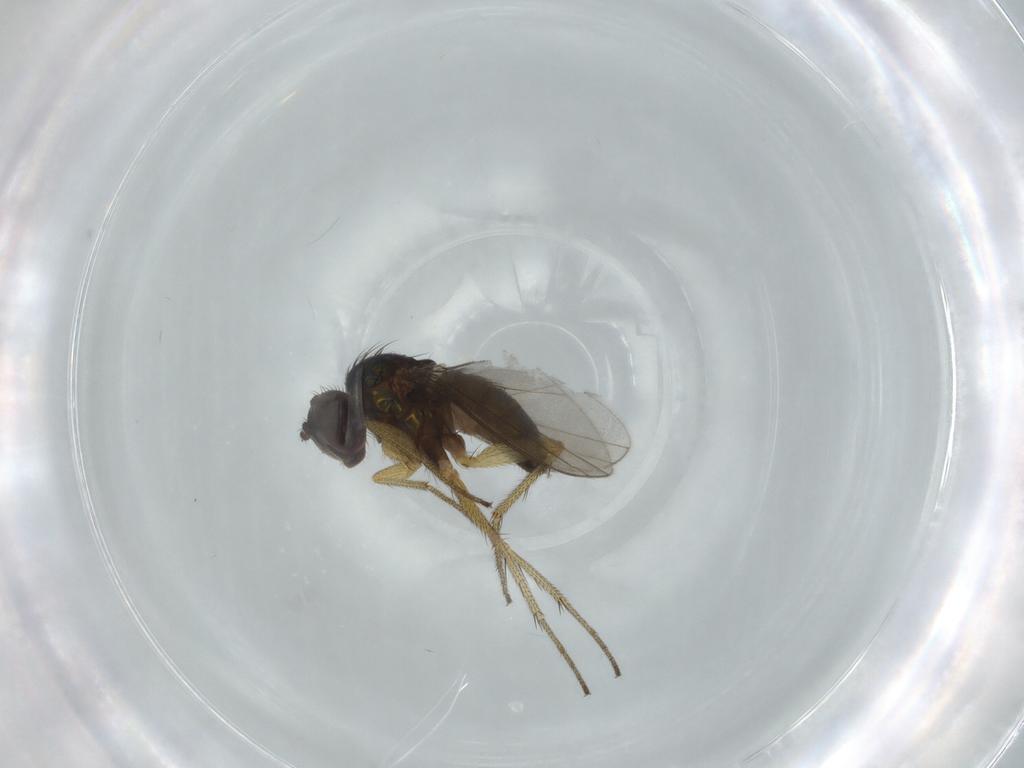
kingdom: Animalia
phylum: Arthropoda
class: Insecta
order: Diptera
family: Dolichopodidae
